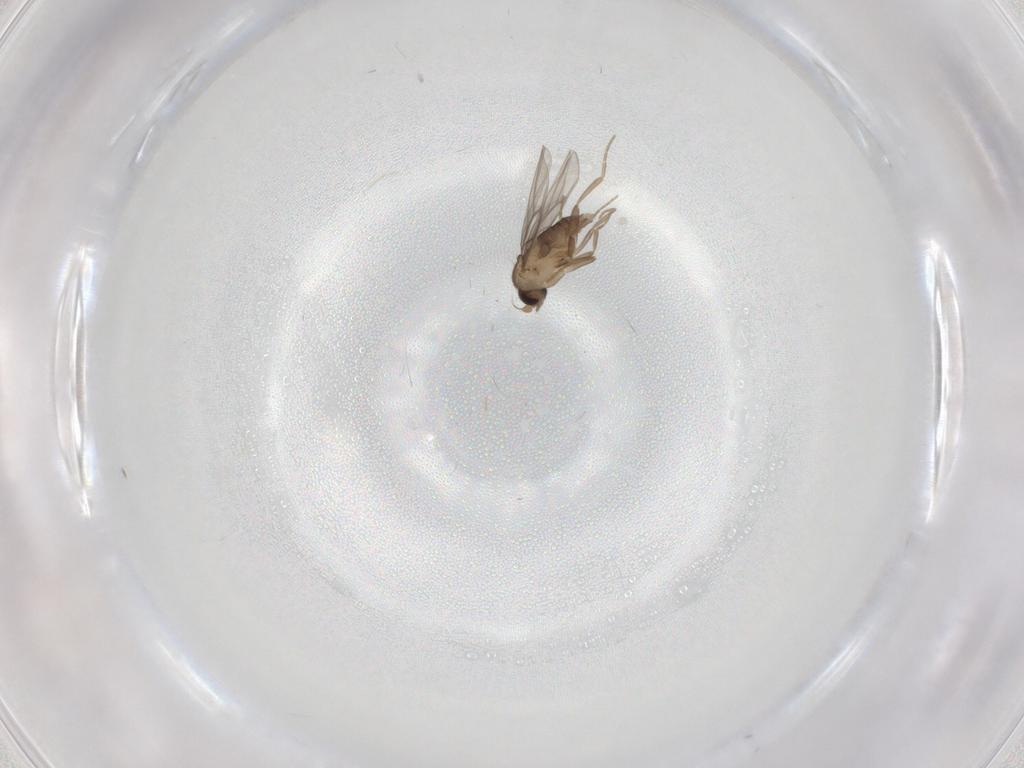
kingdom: Animalia
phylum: Arthropoda
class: Insecta
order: Diptera
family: Sciaridae
